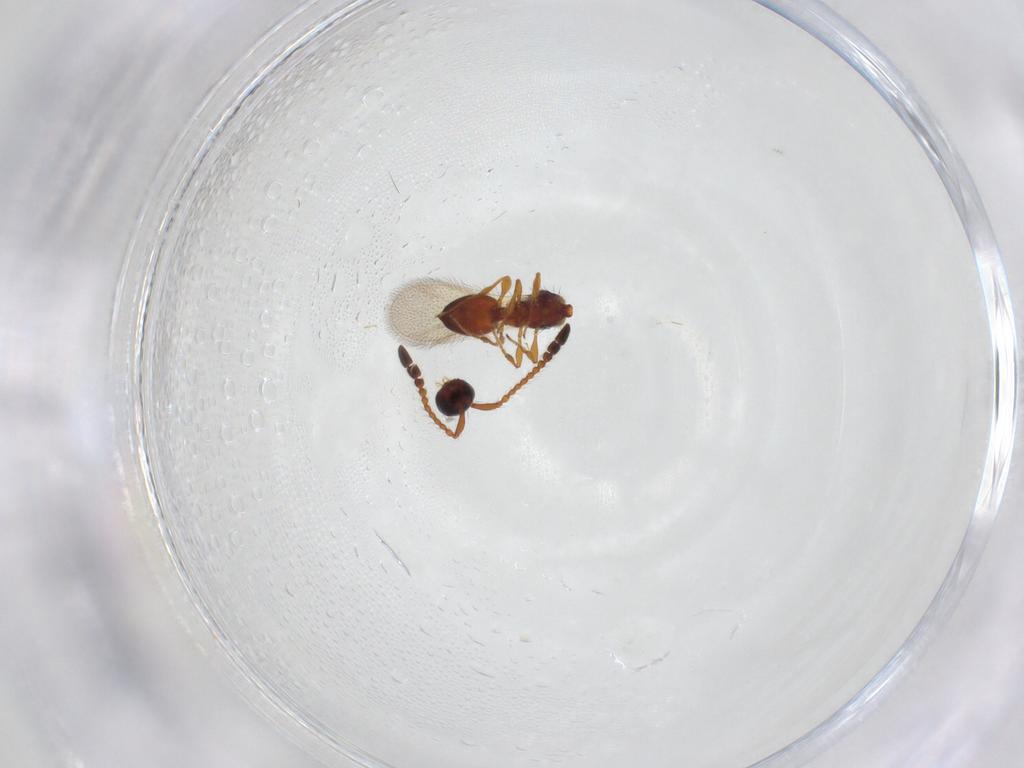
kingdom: Animalia
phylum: Arthropoda
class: Insecta
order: Hymenoptera
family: Diapriidae
